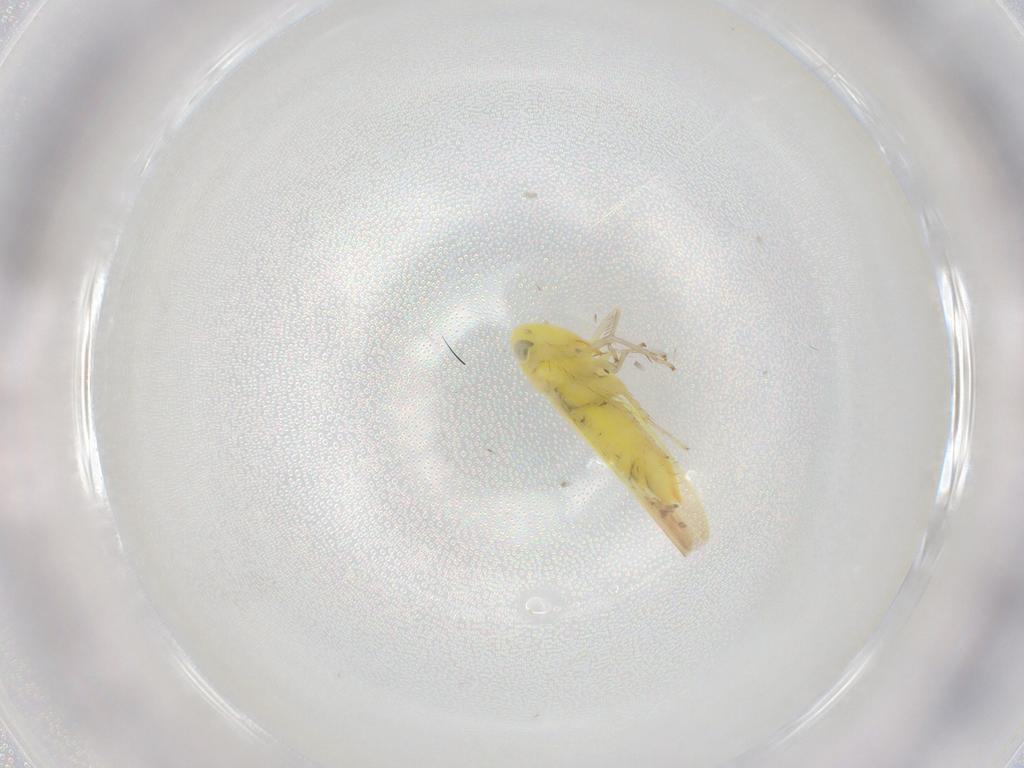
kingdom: Animalia
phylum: Arthropoda
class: Insecta
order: Hemiptera
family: Cicadellidae
